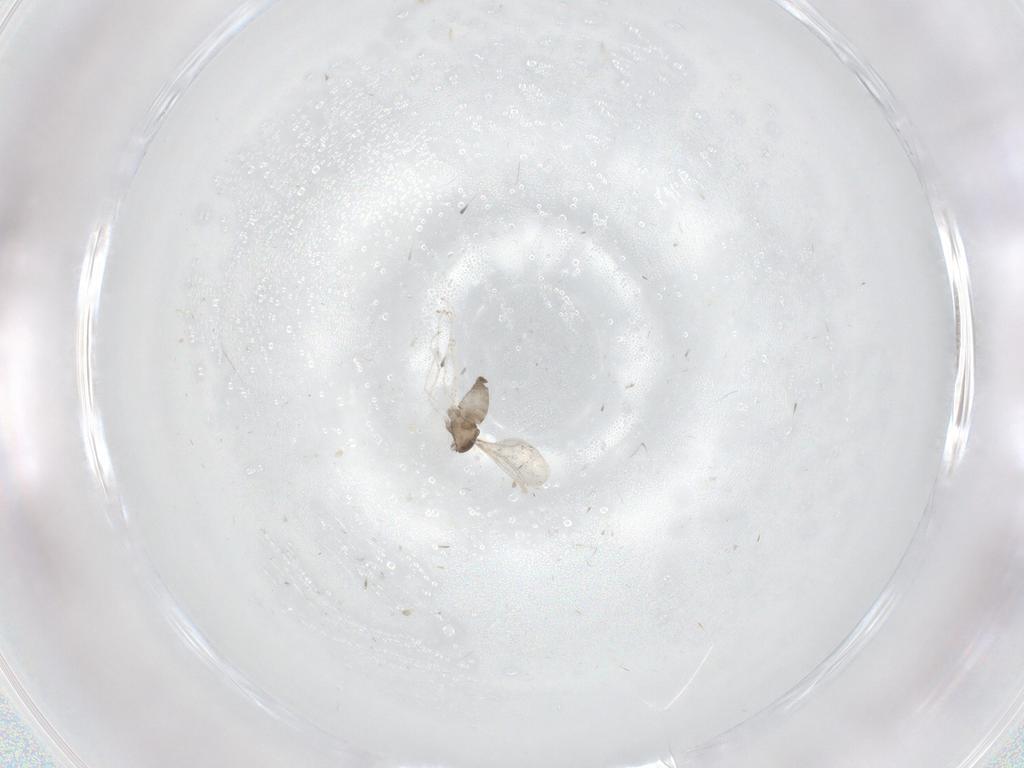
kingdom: Animalia
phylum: Arthropoda
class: Insecta
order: Diptera
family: Cecidomyiidae
